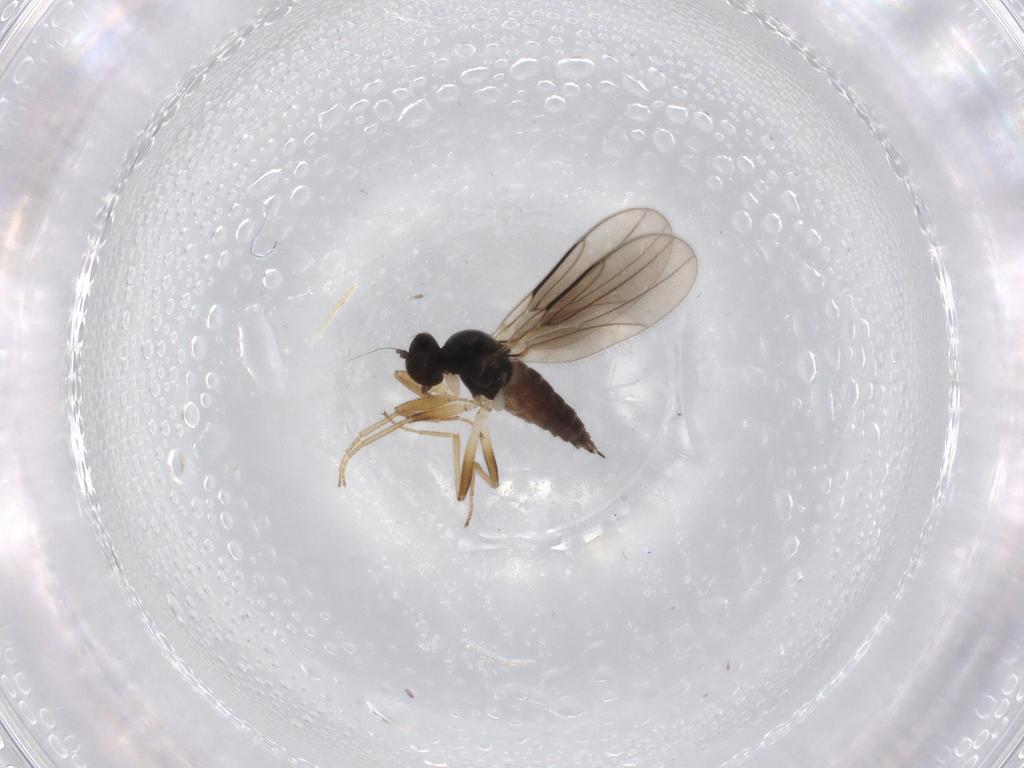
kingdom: Animalia
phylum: Arthropoda
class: Insecta
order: Diptera
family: Hybotidae
